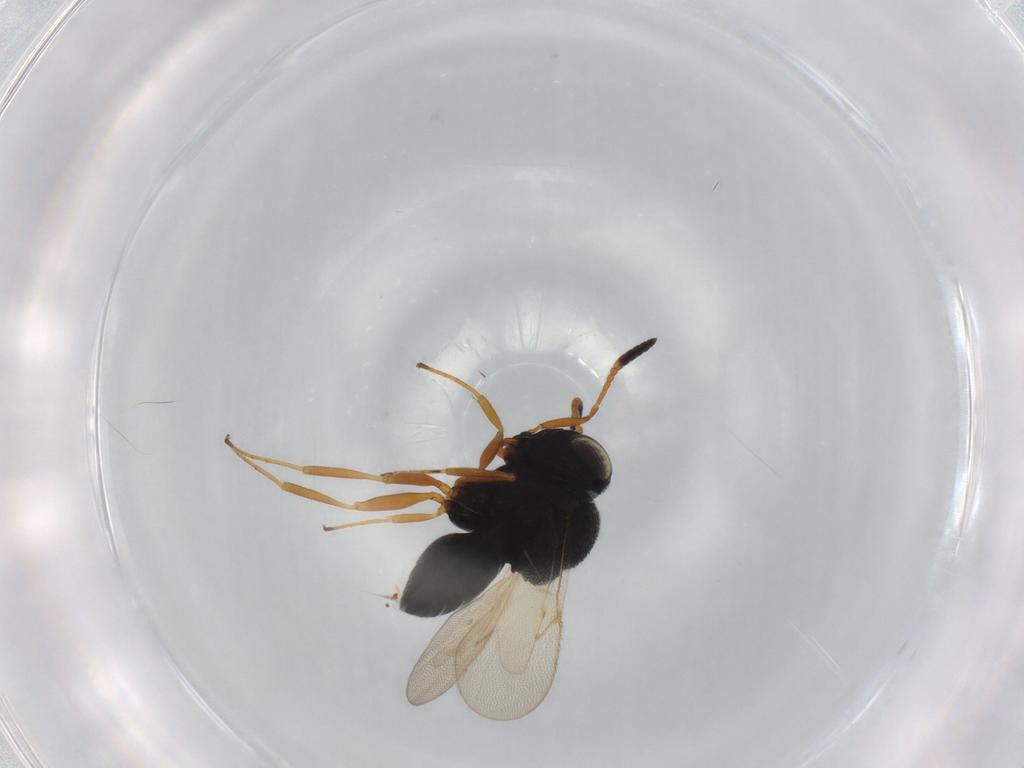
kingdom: Animalia
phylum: Arthropoda
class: Insecta
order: Hymenoptera
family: Scelionidae
